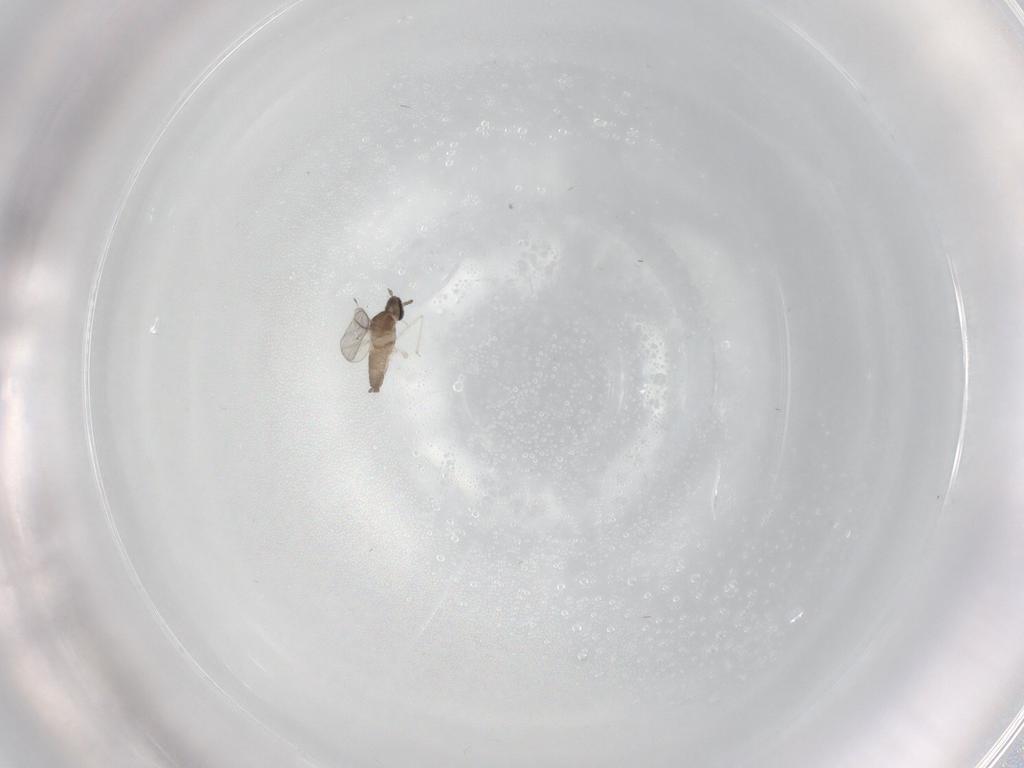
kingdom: Animalia
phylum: Arthropoda
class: Insecta
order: Diptera
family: Cecidomyiidae
